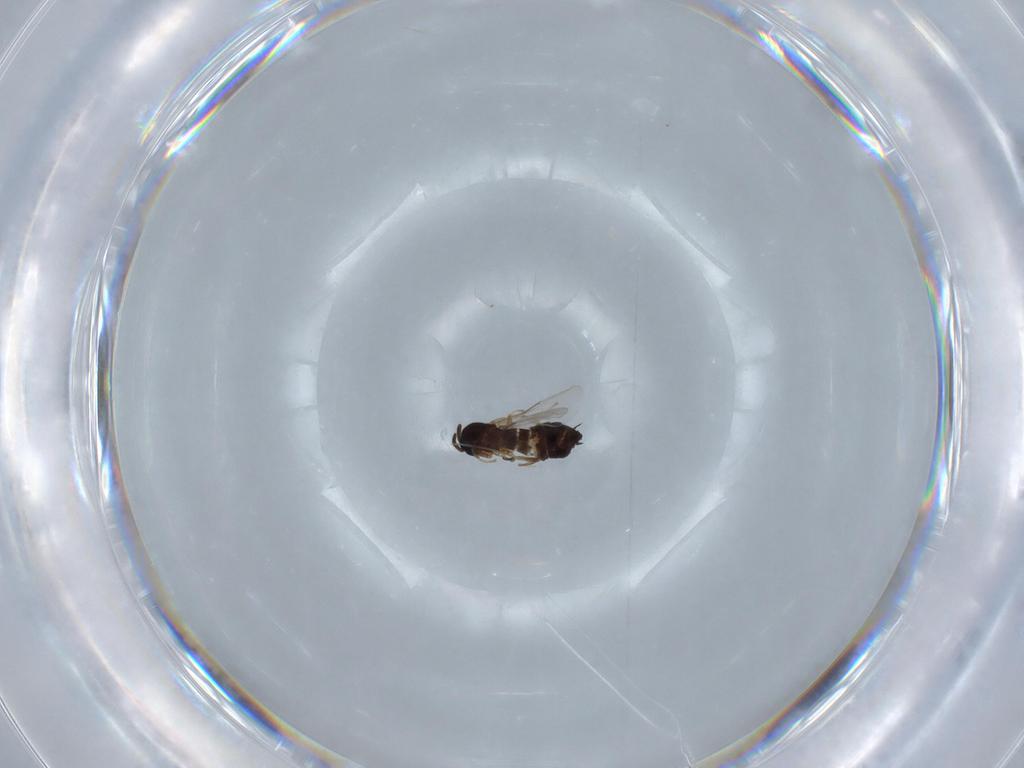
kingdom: Animalia
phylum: Arthropoda
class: Insecta
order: Diptera
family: Scatopsidae
